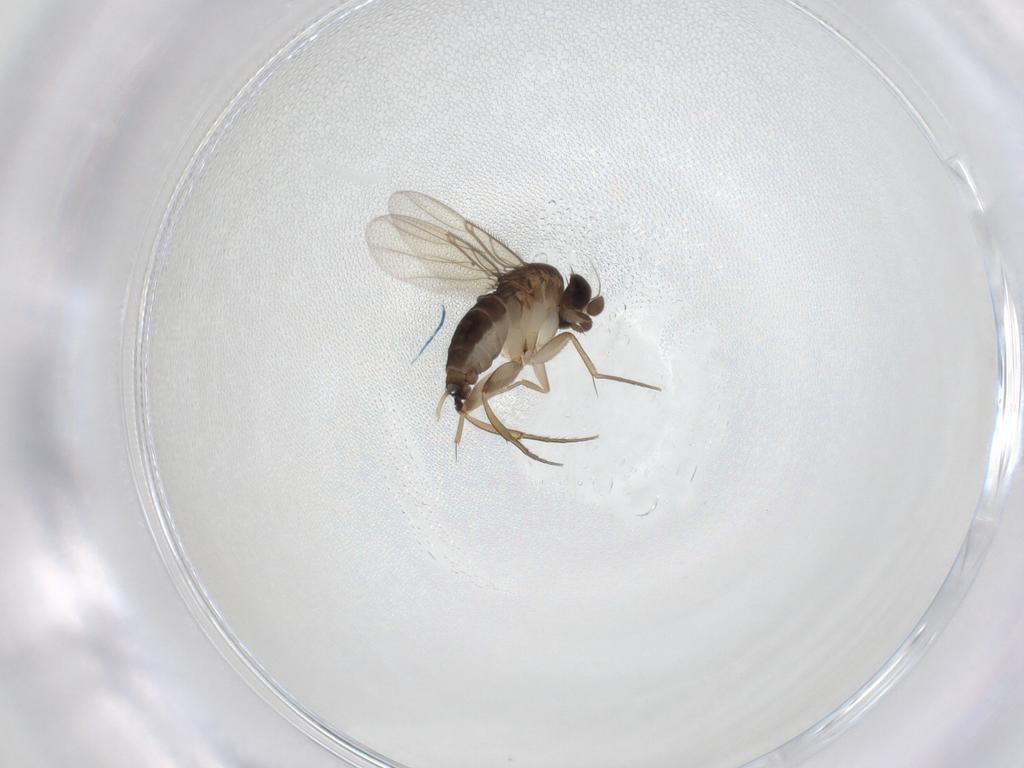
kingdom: Animalia
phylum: Arthropoda
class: Insecta
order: Diptera
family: Phoridae
